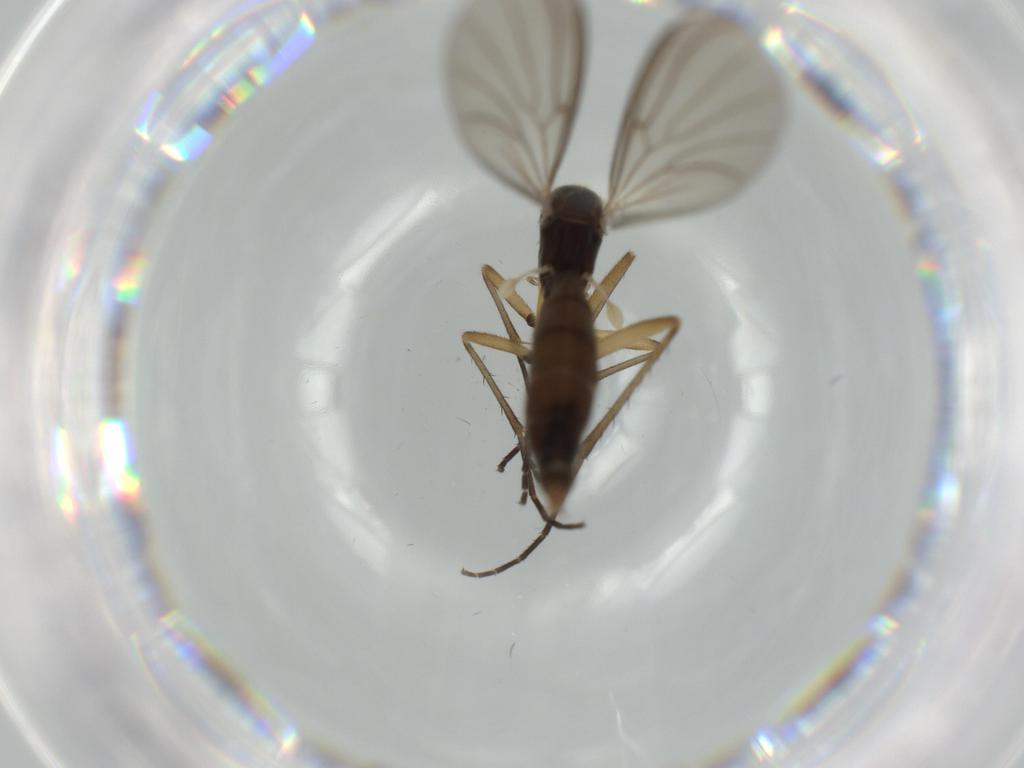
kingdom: Animalia
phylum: Arthropoda
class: Insecta
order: Diptera
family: Mycetophilidae
